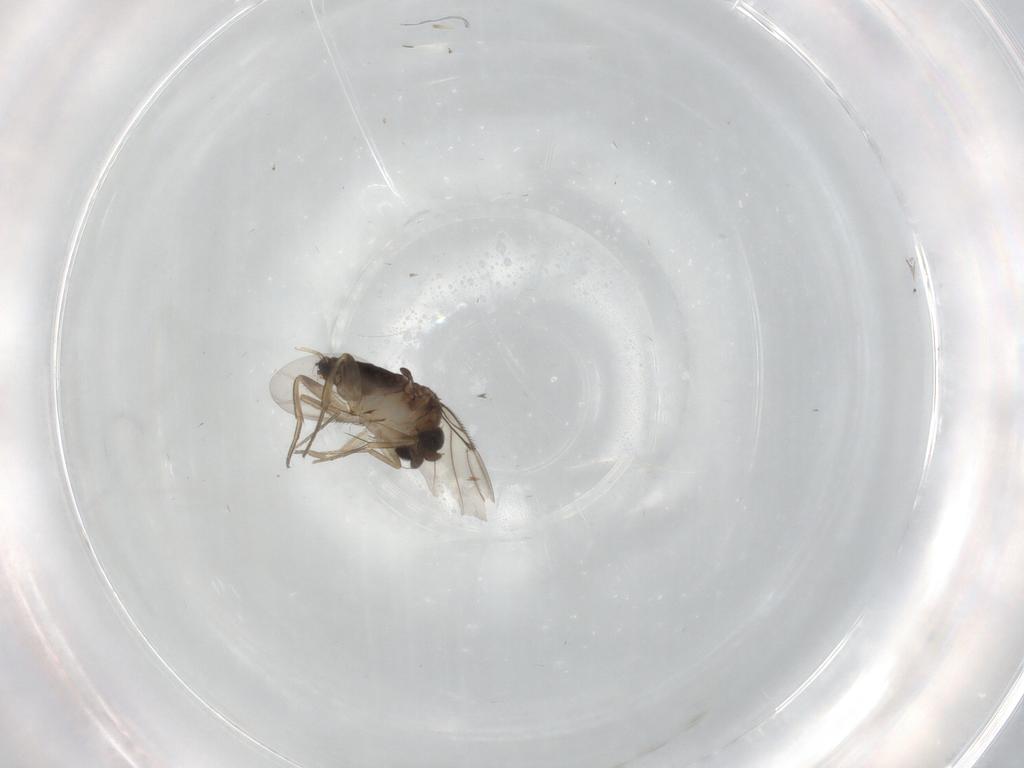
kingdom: Animalia
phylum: Arthropoda
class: Insecta
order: Diptera
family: Phoridae
